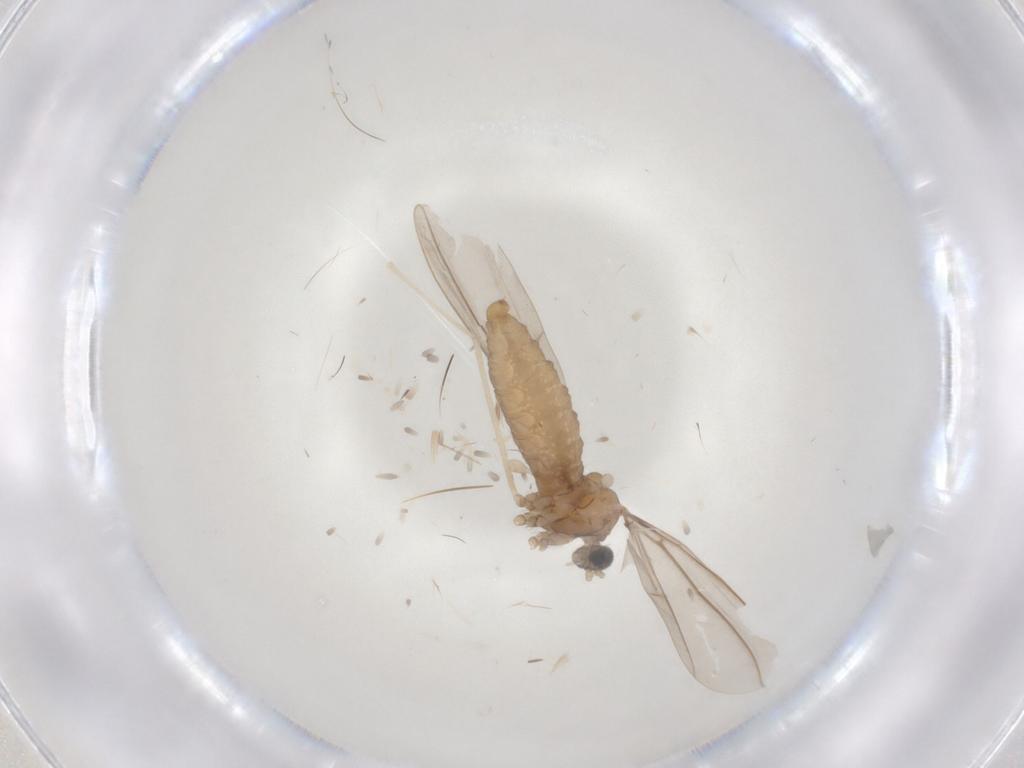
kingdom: Animalia
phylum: Arthropoda
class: Insecta
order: Diptera
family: Cecidomyiidae
